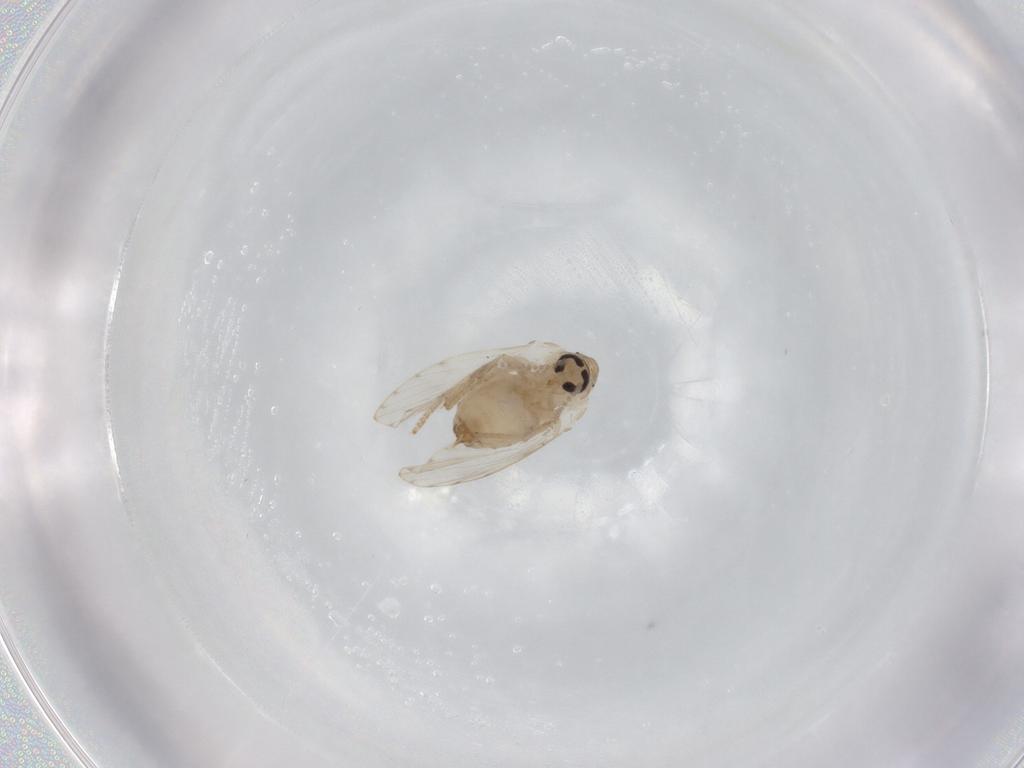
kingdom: Animalia
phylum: Arthropoda
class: Insecta
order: Diptera
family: Psychodidae
